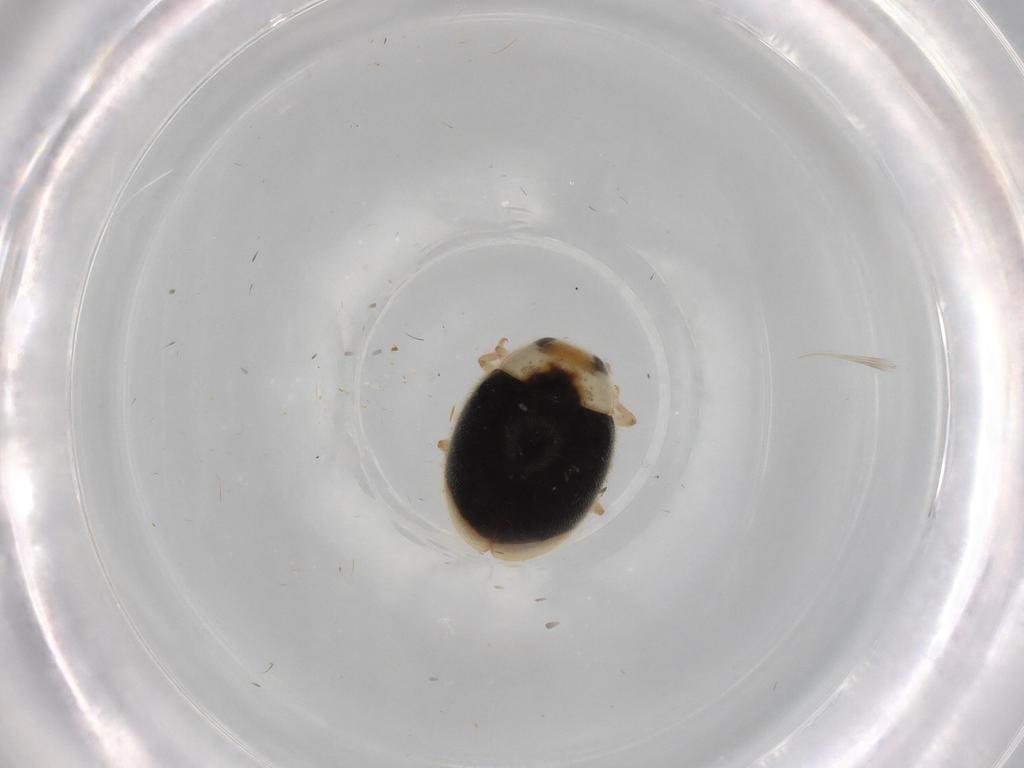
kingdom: Animalia
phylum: Arthropoda
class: Insecta
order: Coleoptera
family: Coccinellidae
